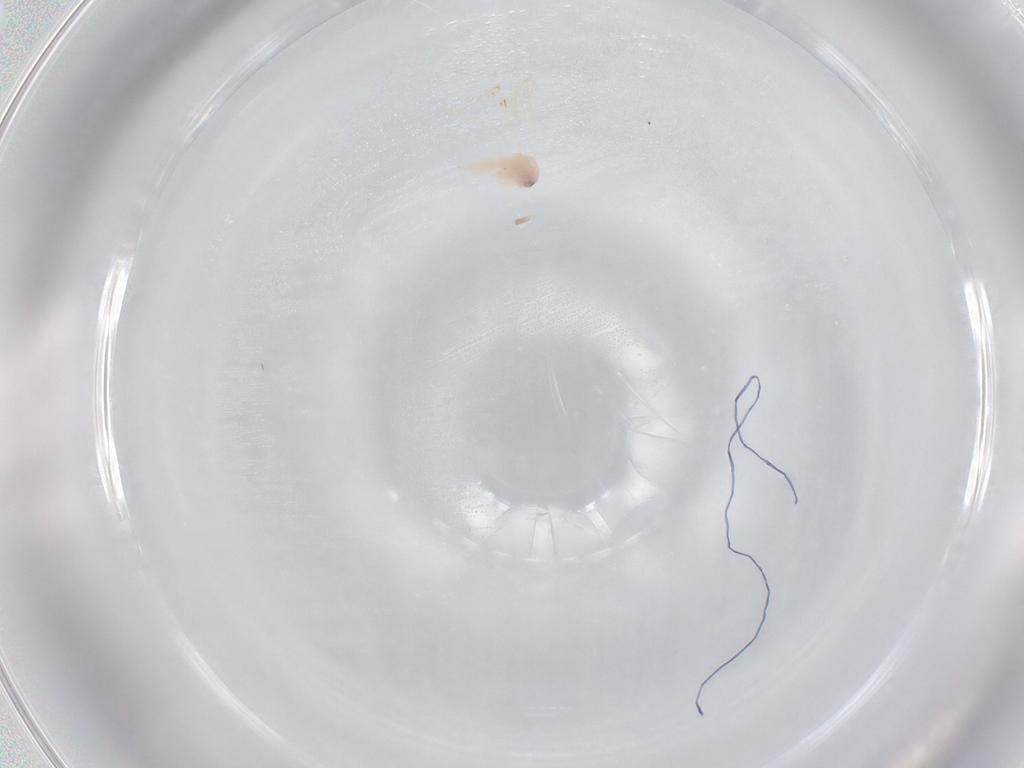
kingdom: Animalia
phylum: Arthropoda
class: Insecta
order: Hemiptera
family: Aleyrodidae
